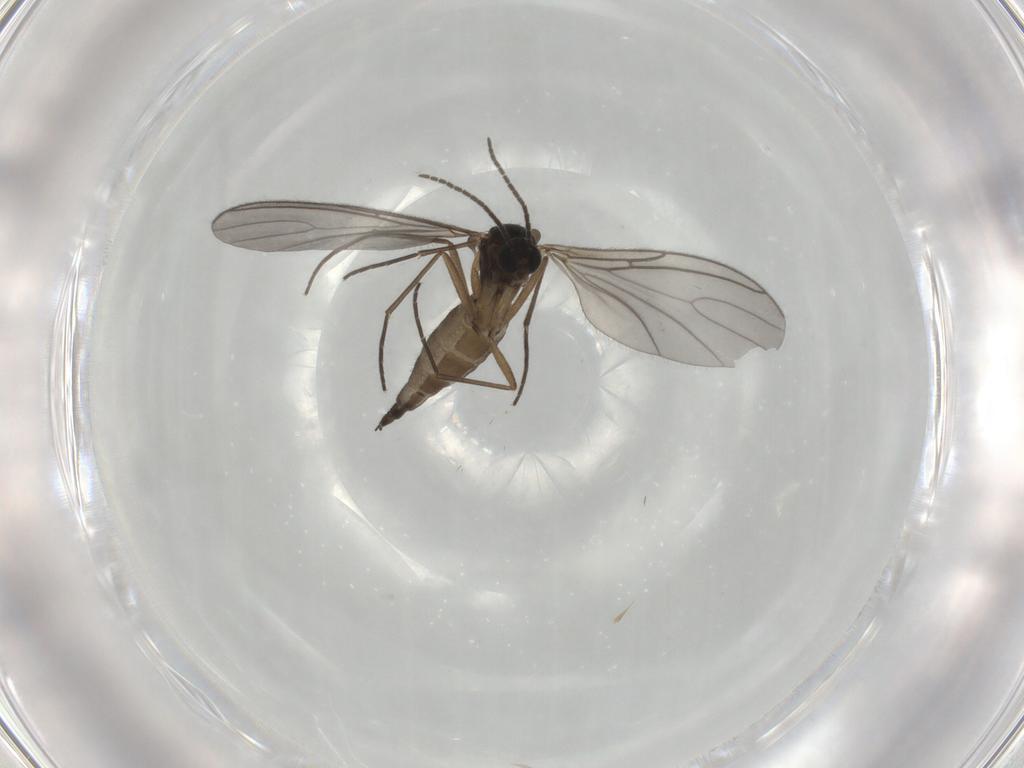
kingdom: Animalia
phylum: Arthropoda
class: Insecta
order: Diptera
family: Sciaridae
